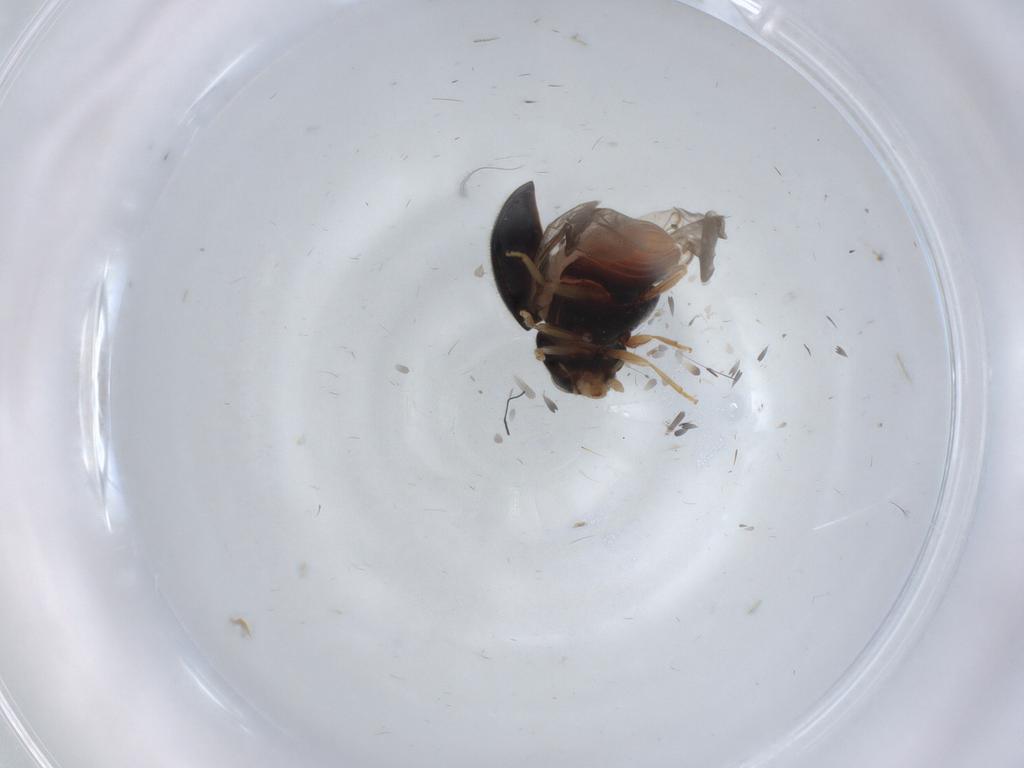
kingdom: Animalia
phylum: Arthropoda
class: Insecta
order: Coleoptera
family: Coccinellidae
